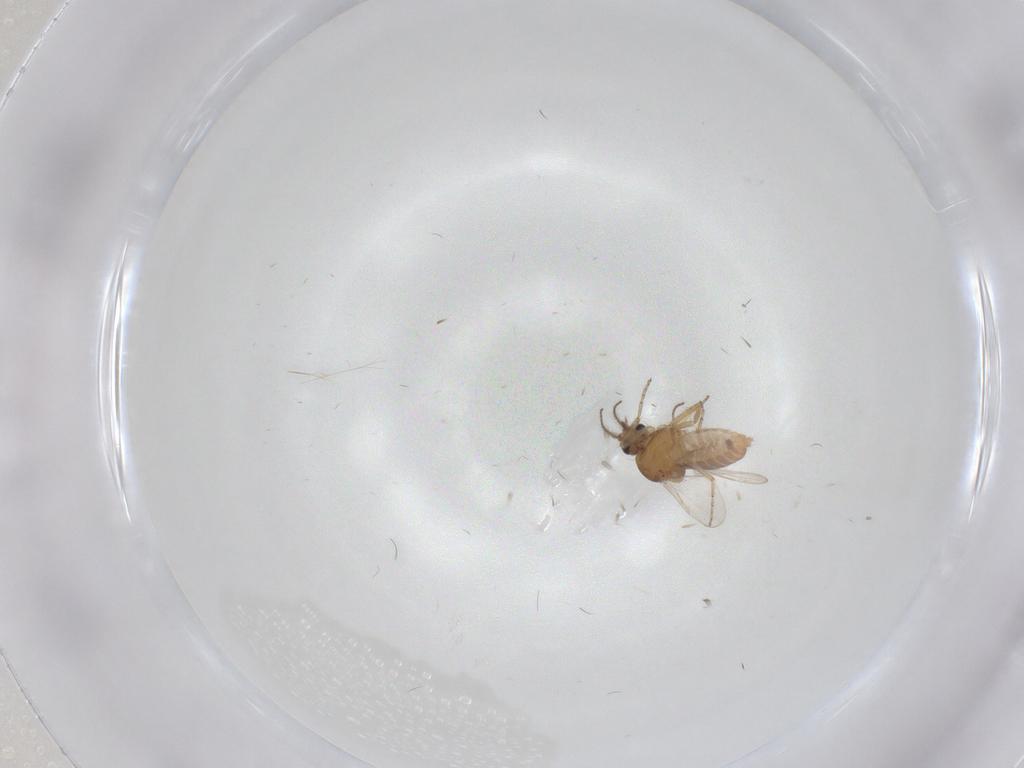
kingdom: Animalia
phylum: Arthropoda
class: Insecta
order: Diptera
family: Ceratopogonidae
